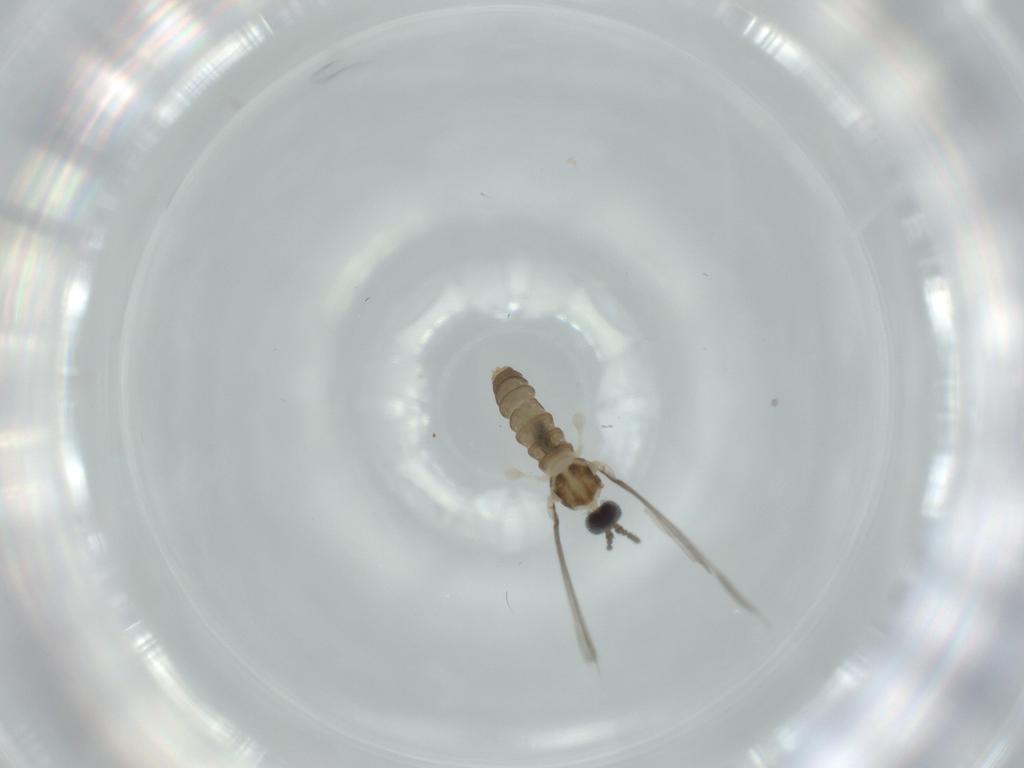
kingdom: Animalia
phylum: Arthropoda
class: Insecta
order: Diptera
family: Cecidomyiidae
